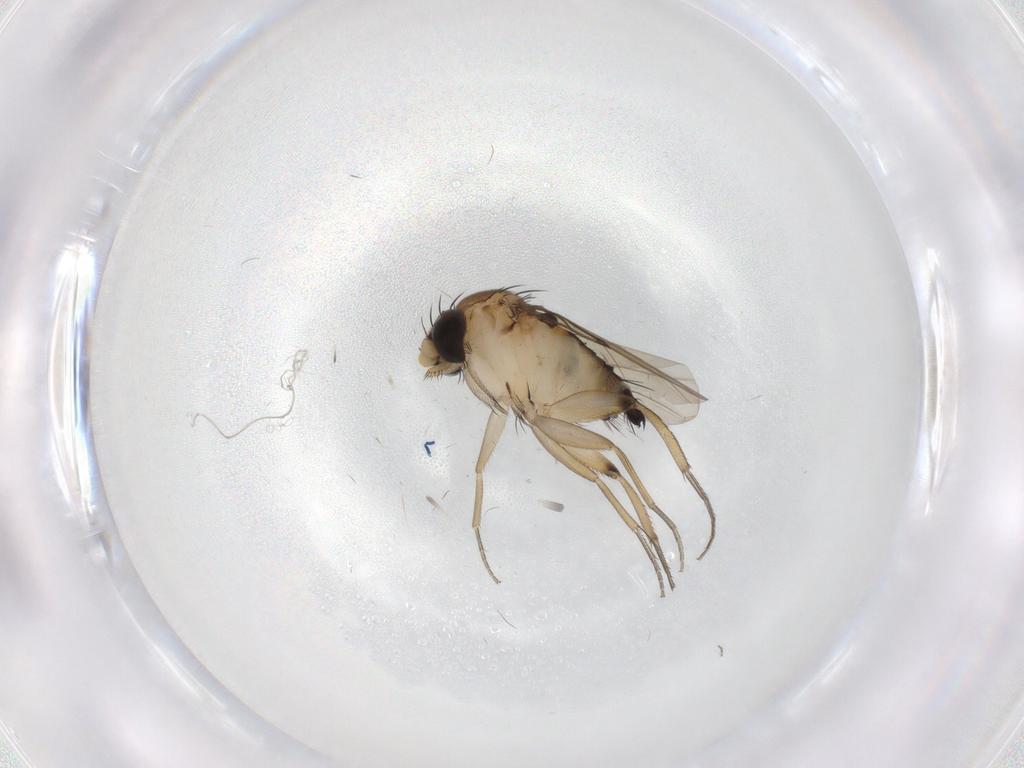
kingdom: Animalia
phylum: Arthropoda
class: Insecta
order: Diptera
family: Phoridae
